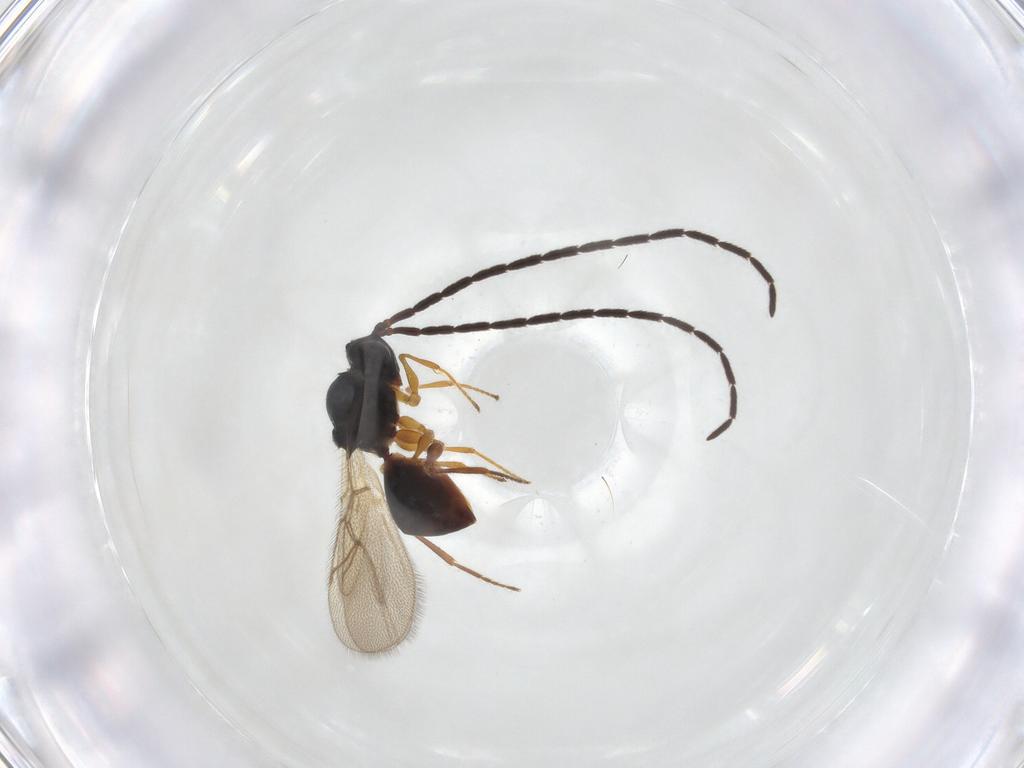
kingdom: Animalia
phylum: Arthropoda
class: Insecta
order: Hymenoptera
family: Scelionidae
